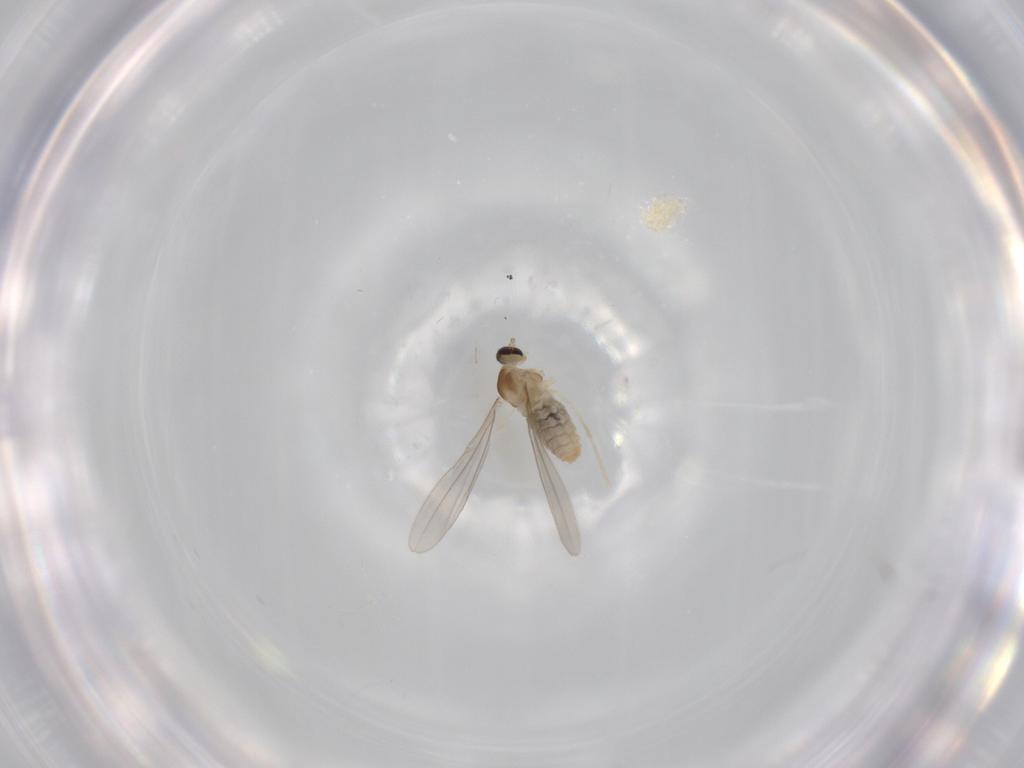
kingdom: Animalia
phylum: Arthropoda
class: Insecta
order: Diptera
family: Cecidomyiidae
